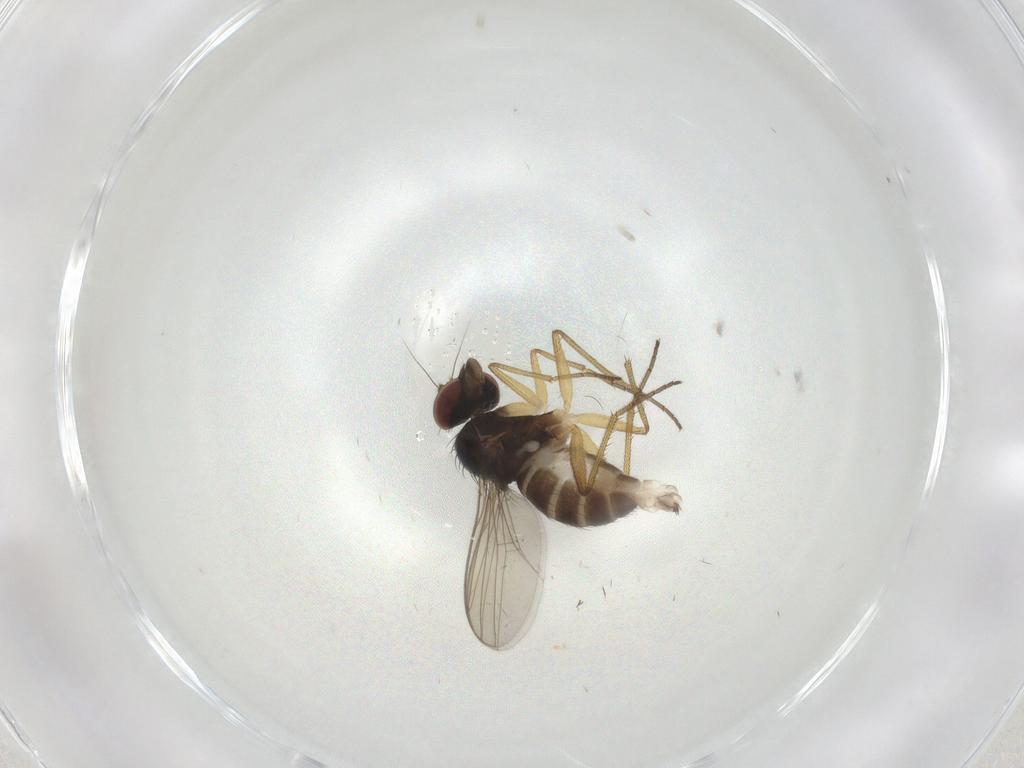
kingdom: Animalia
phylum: Arthropoda
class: Insecta
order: Diptera
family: Dolichopodidae
